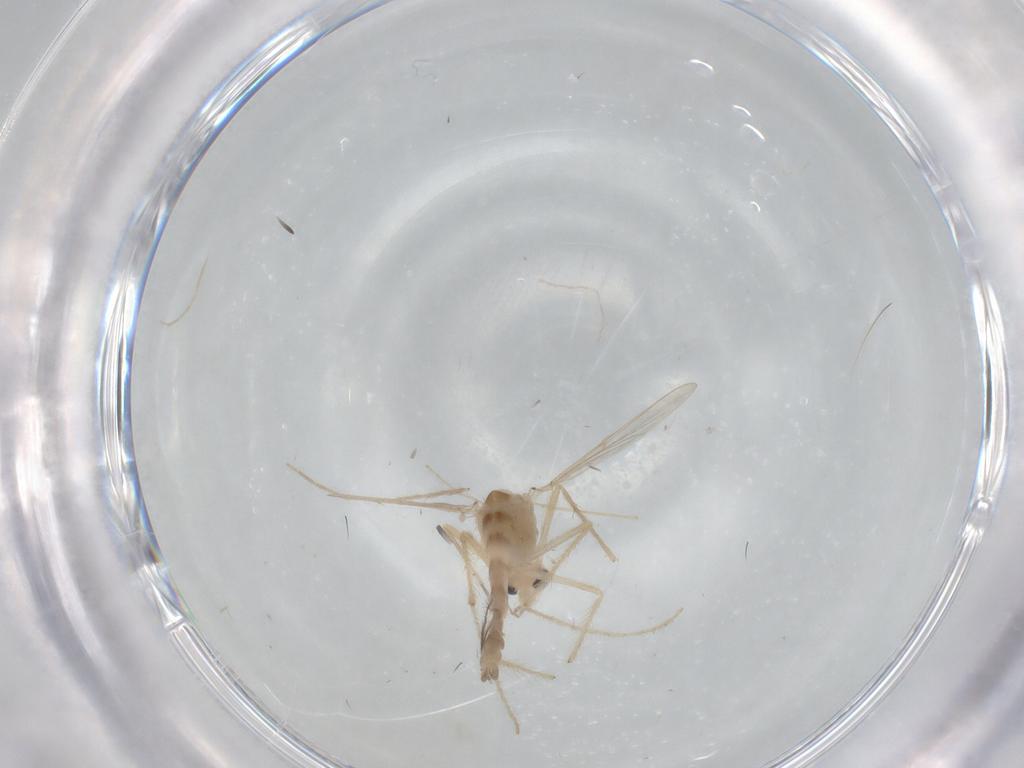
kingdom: Animalia
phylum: Arthropoda
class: Insecta
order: Diptera
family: Chironomidae
